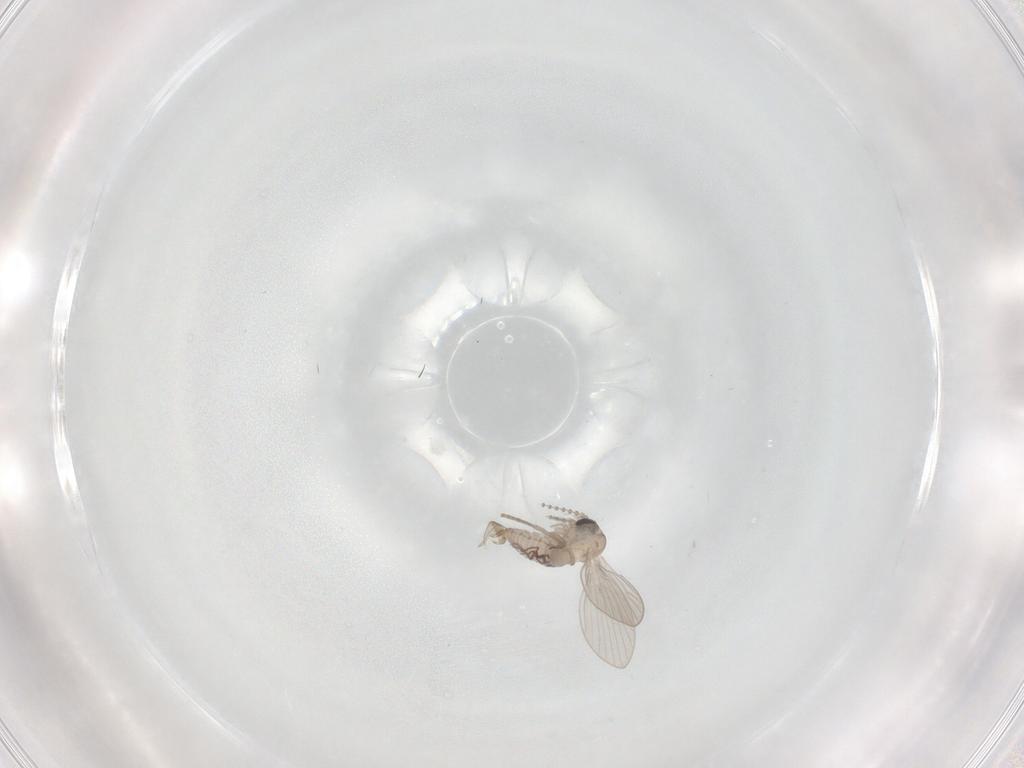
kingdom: Animalia
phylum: Arthropoda
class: Insecta
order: Diptera
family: Psychodidae
